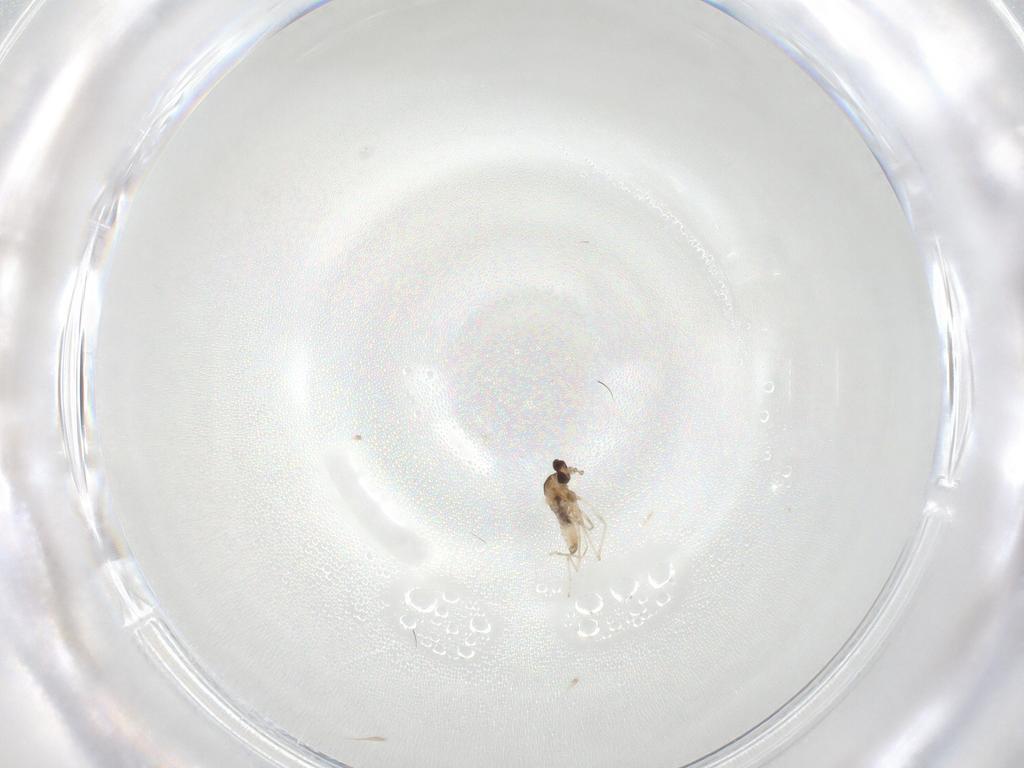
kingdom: Animalia
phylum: Arthropoda
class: Insecta
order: Diptera
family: Cecidomyiidae
